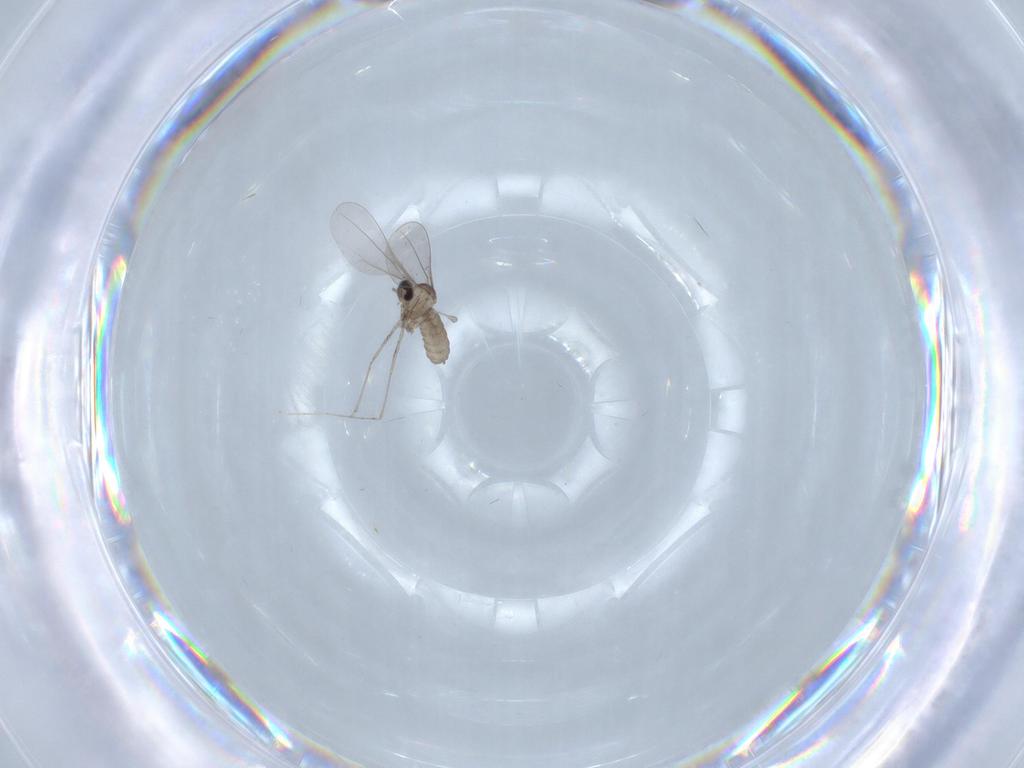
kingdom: Animalia
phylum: Arthropoda
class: Insecta
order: Diptera
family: Cecidomyiidae
